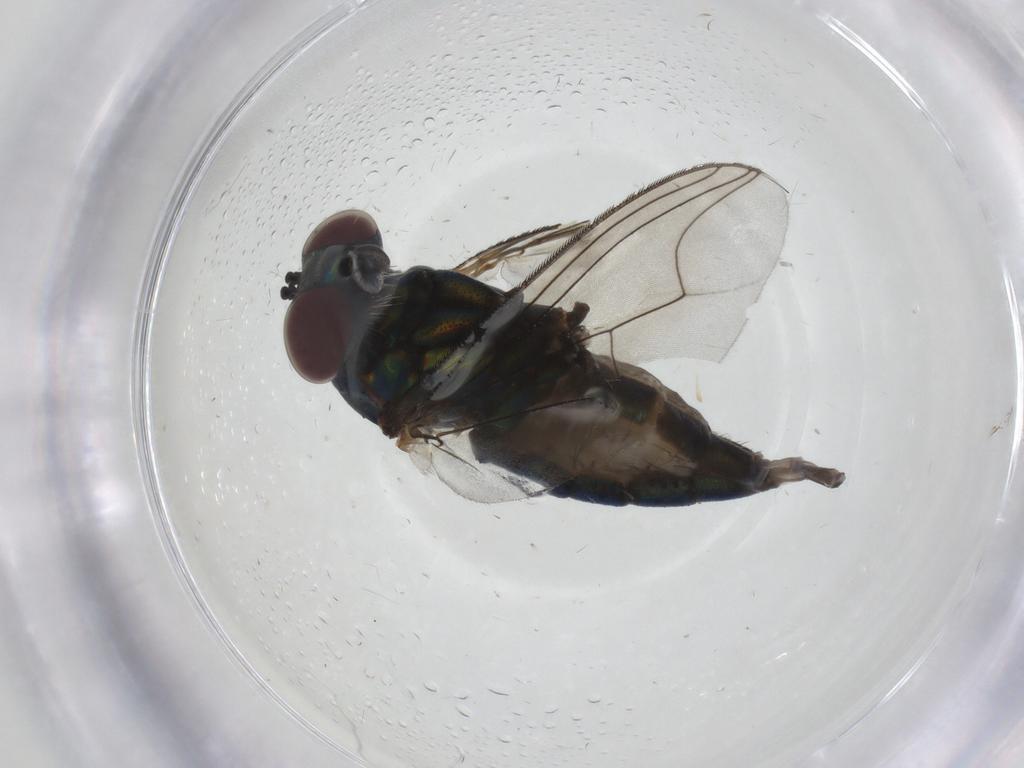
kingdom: Animalia
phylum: Arthropoda
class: Insecta
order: Diptera
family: Dolichopodidae
